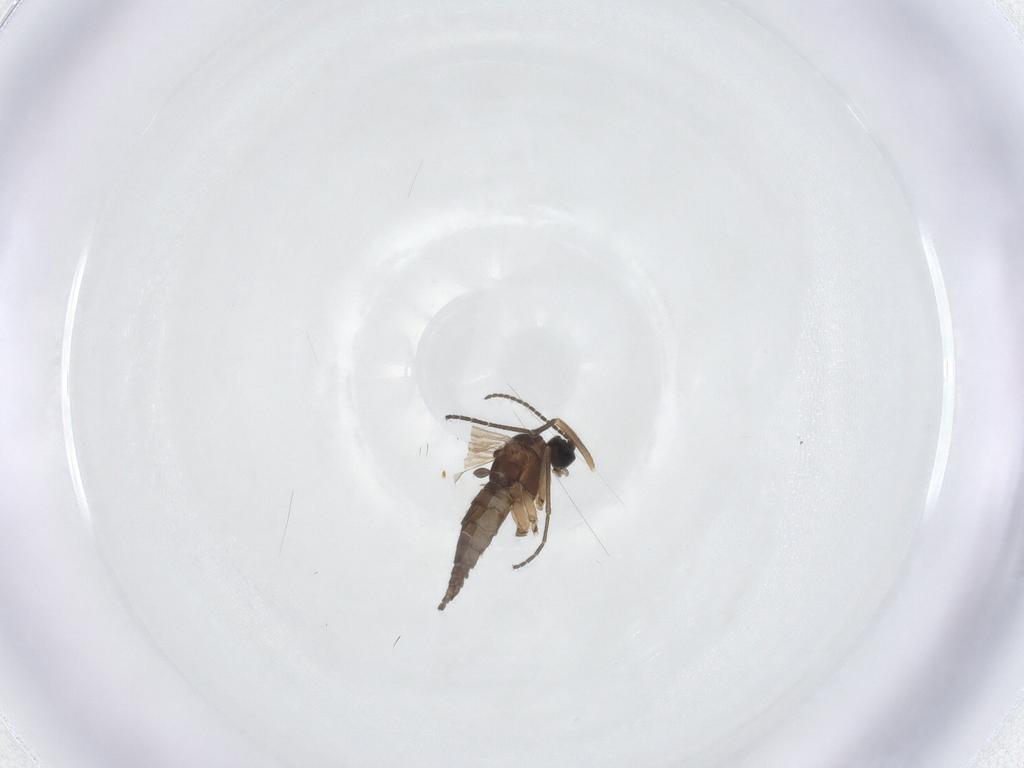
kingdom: Animalia
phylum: Arthropoda
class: Insecta
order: Diptera
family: Sciaridae
